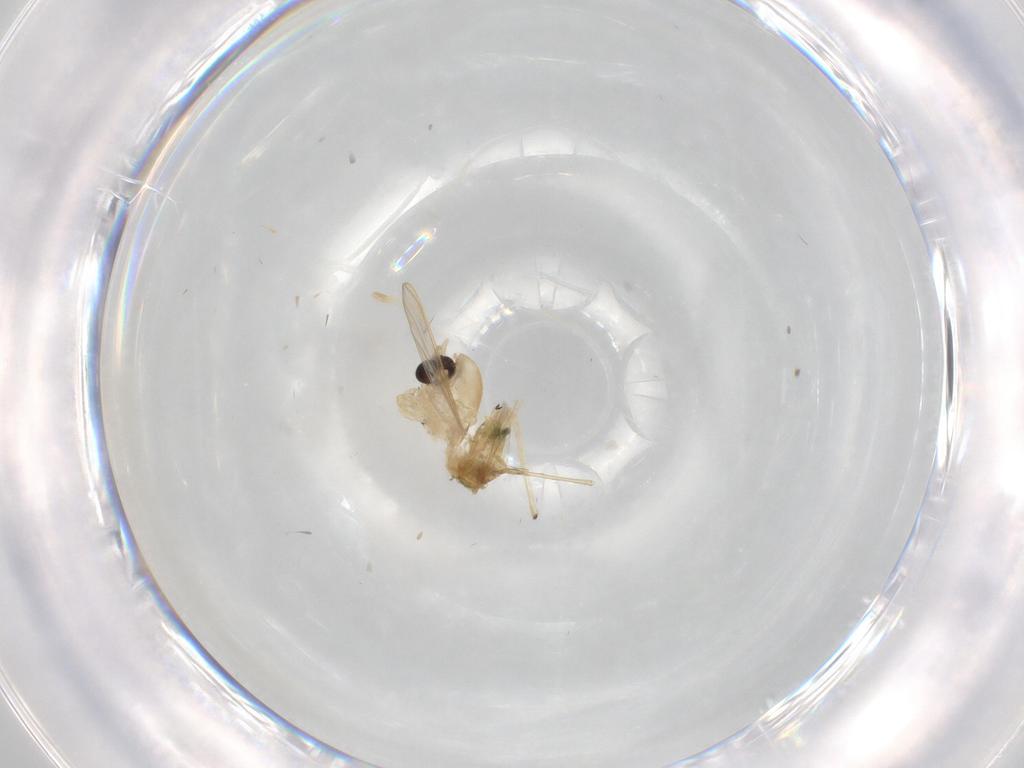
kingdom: Animalia
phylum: Arthropoda
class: Insecta
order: Diptera
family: Chironomidae
